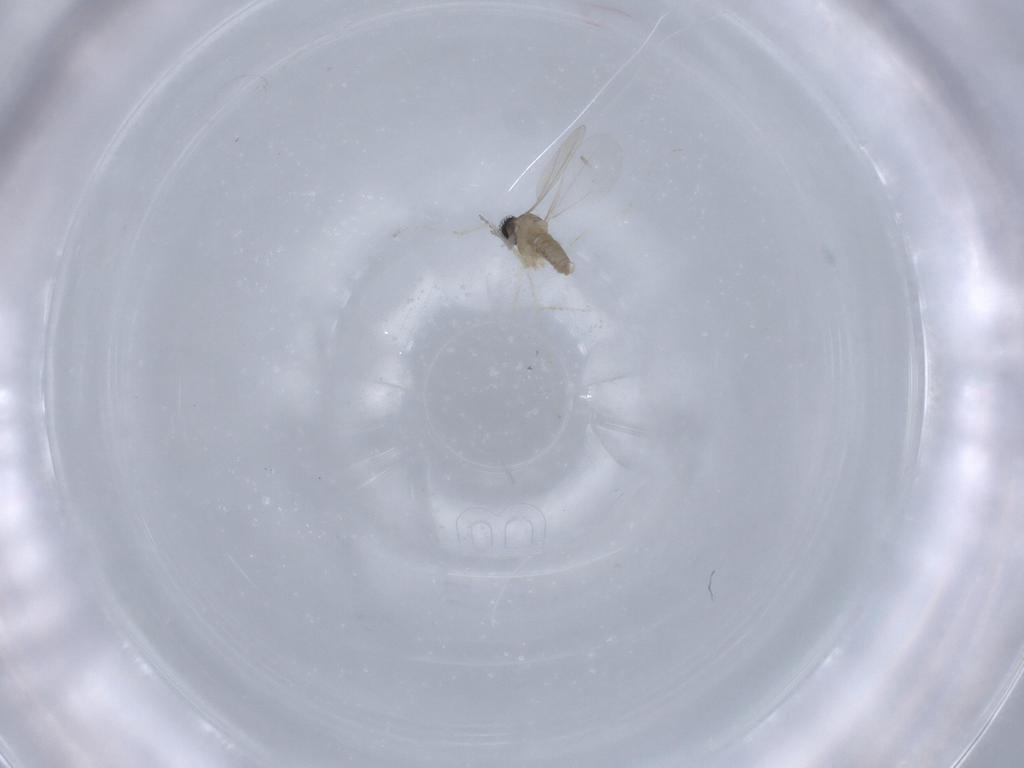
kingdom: Animalia
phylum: Arthropoda
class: Insecta
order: Diptera
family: Cecidomyiidae
